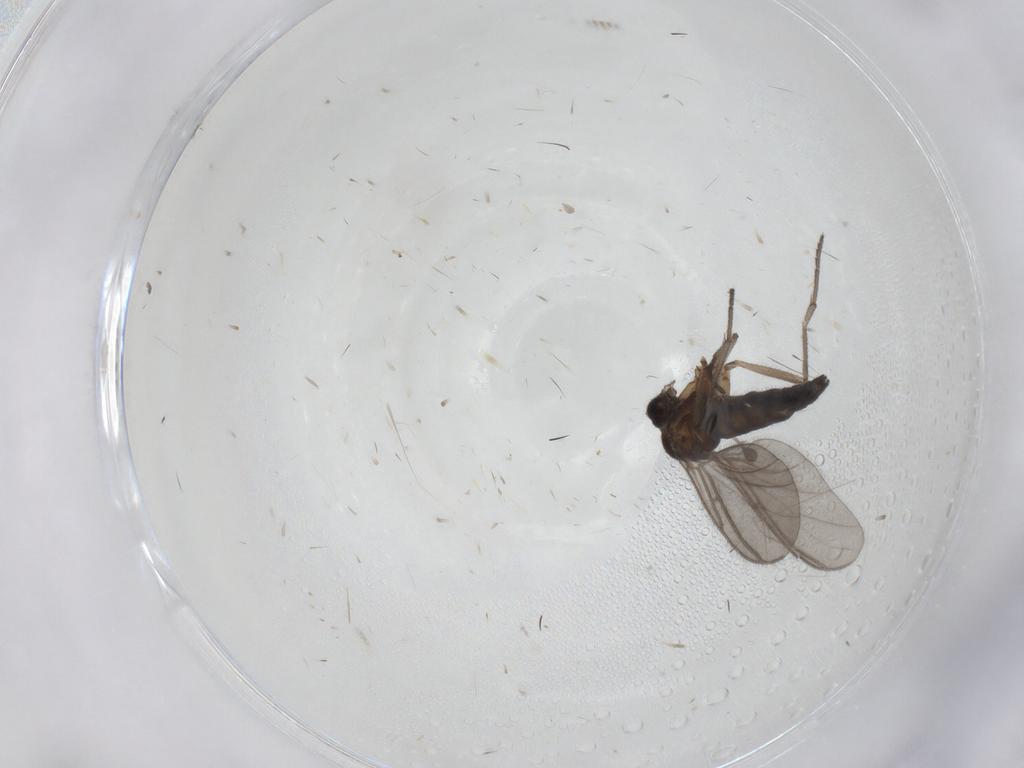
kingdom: Animalia
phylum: Arthropoda
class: Insecta
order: Diptera
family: Sciaridae
